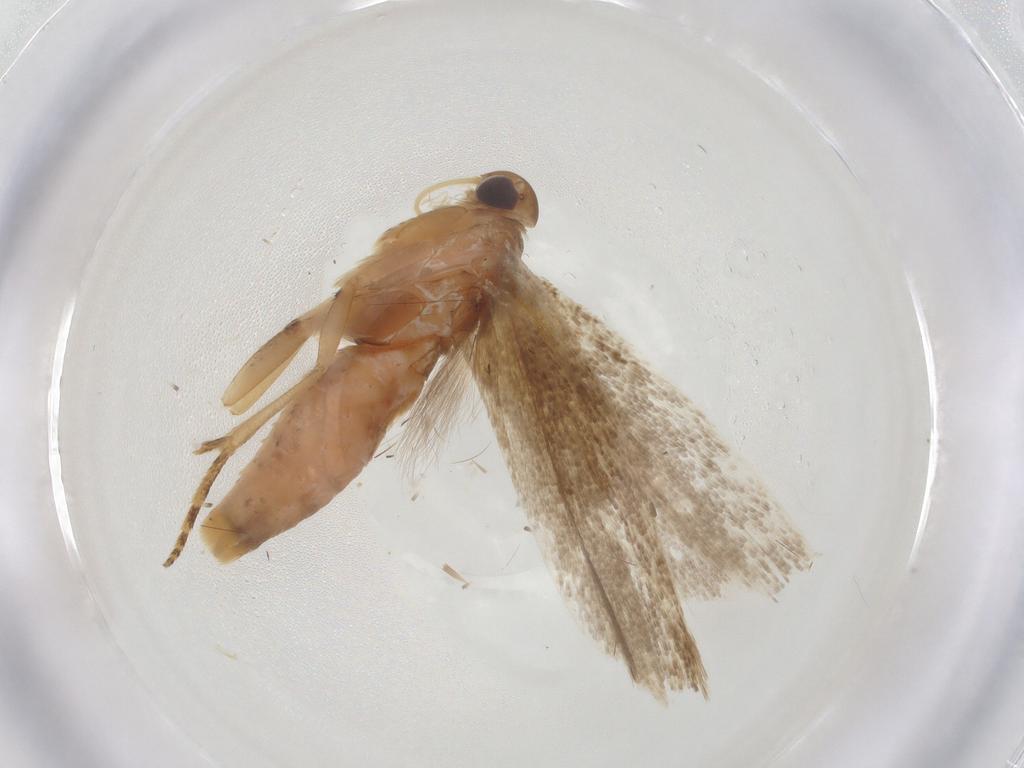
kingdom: Animalia
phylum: Arthropoda
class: Insecta
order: Lepidoptera
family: Gelechiidae
